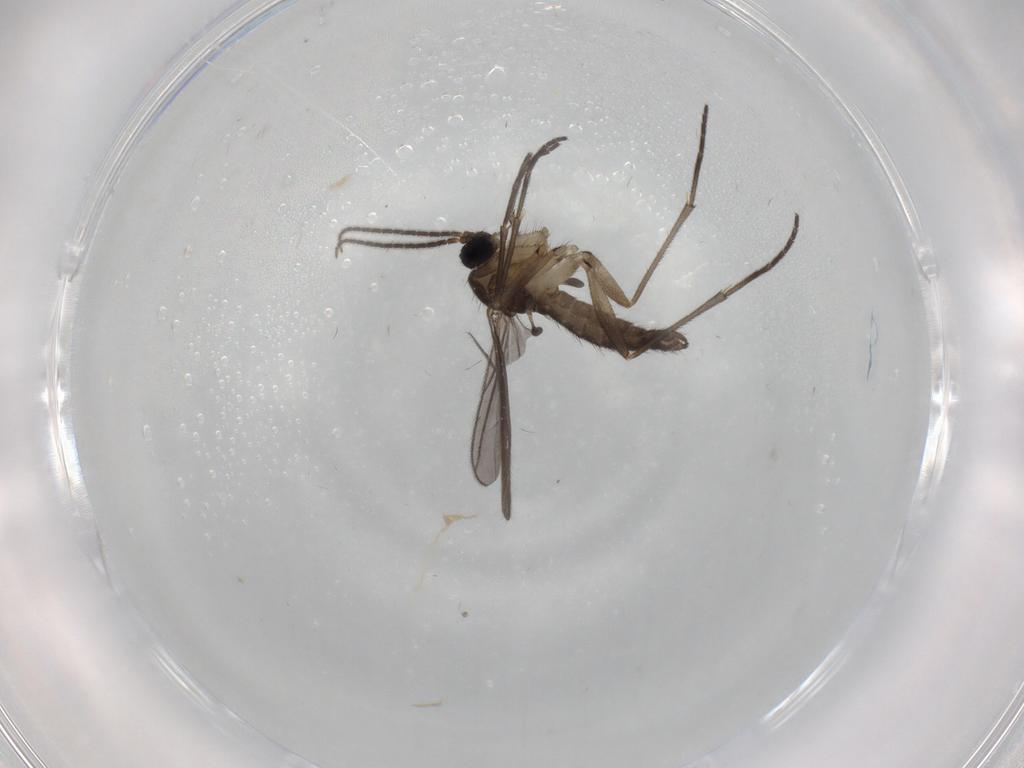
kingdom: Animalia
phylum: Arthropoda
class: Insecta
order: Diptera
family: Sciaridae
